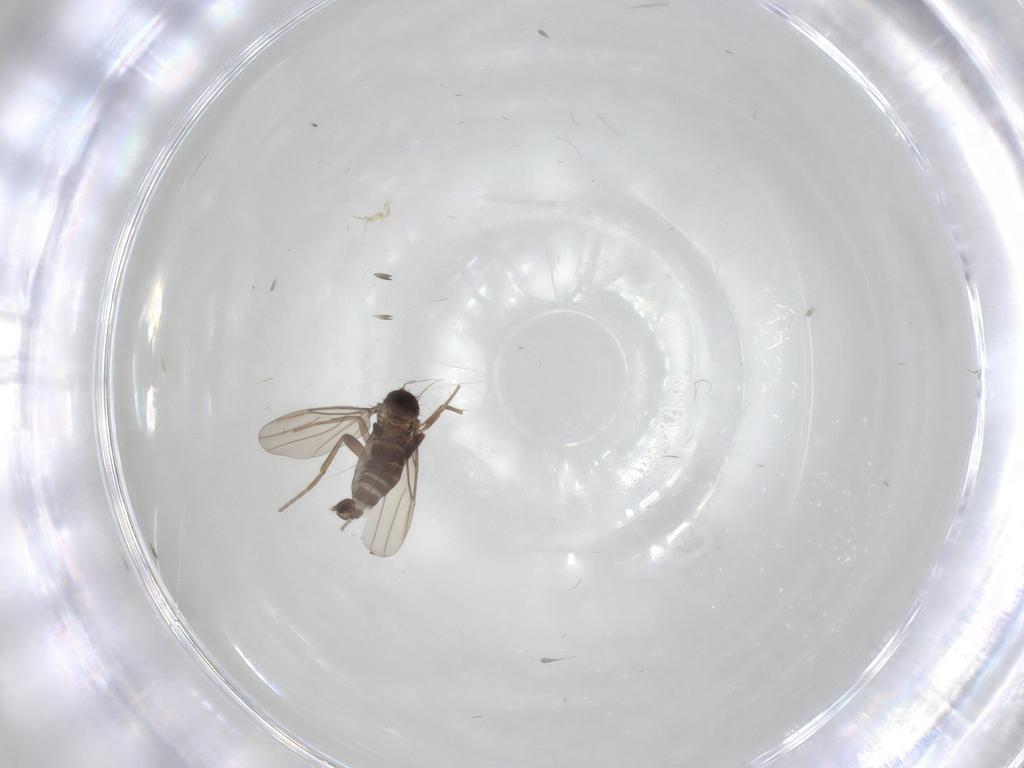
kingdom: Animalia
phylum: Arthropoda
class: Insecta
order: Diptera
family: Phoridae
